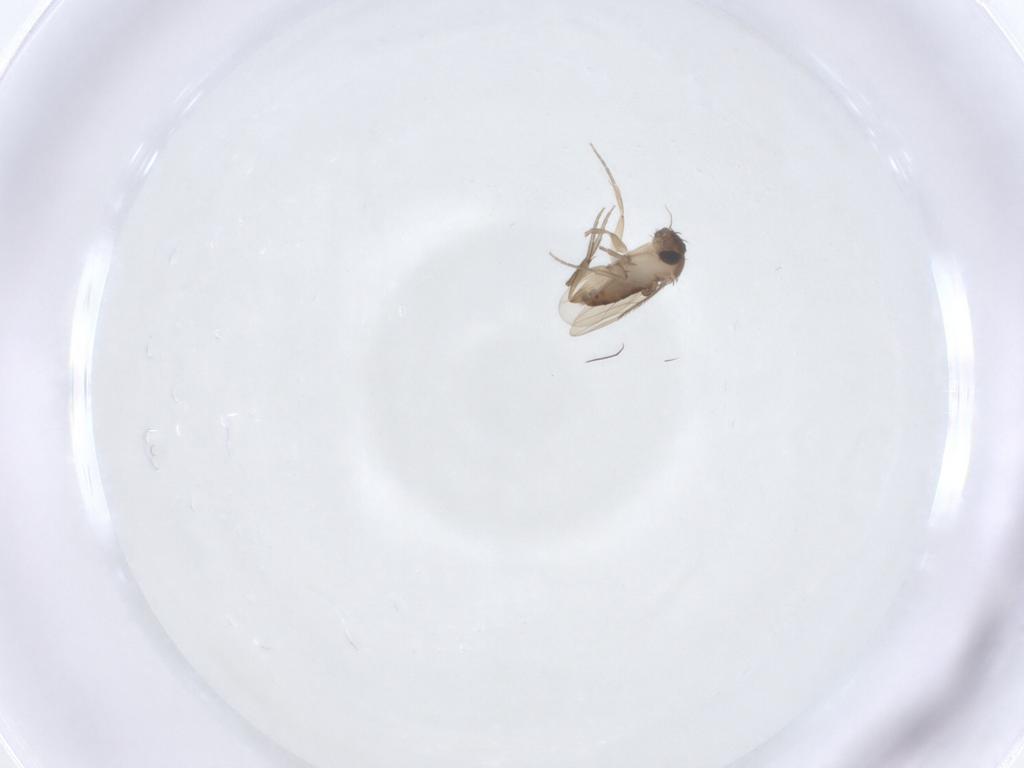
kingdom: Animalia
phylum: Arthropoda
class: Insecta
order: Diptera
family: Phoridae
